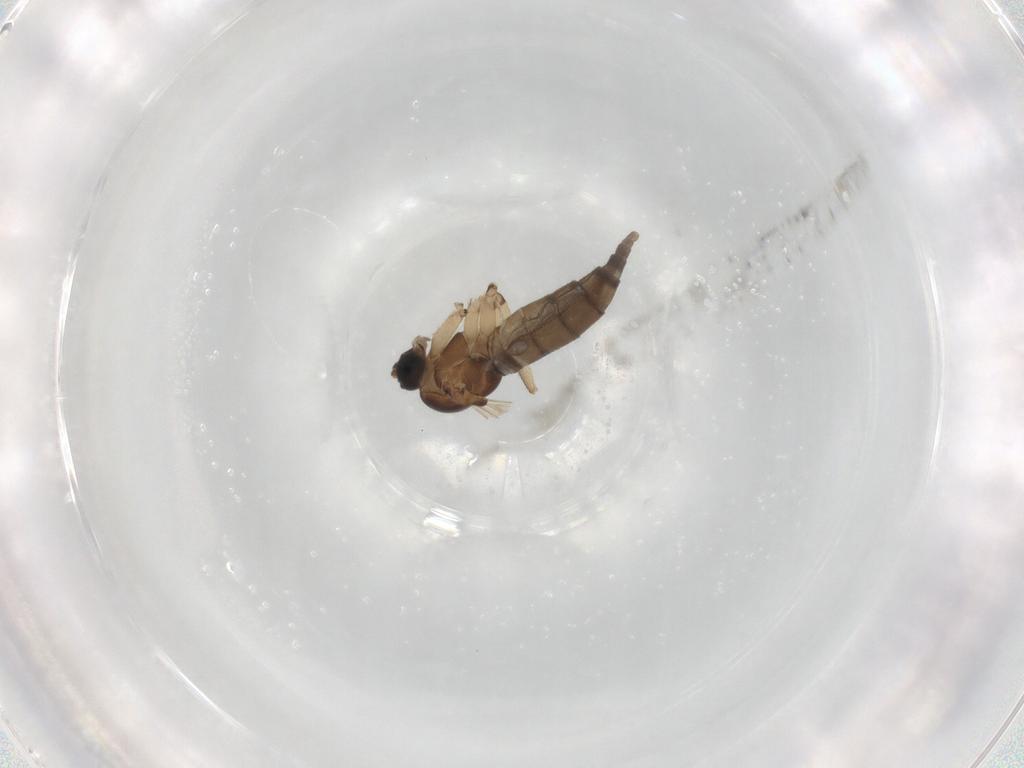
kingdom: Animalia
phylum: Arthropoda
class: Insecta
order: Diptera
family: Sciaridae
